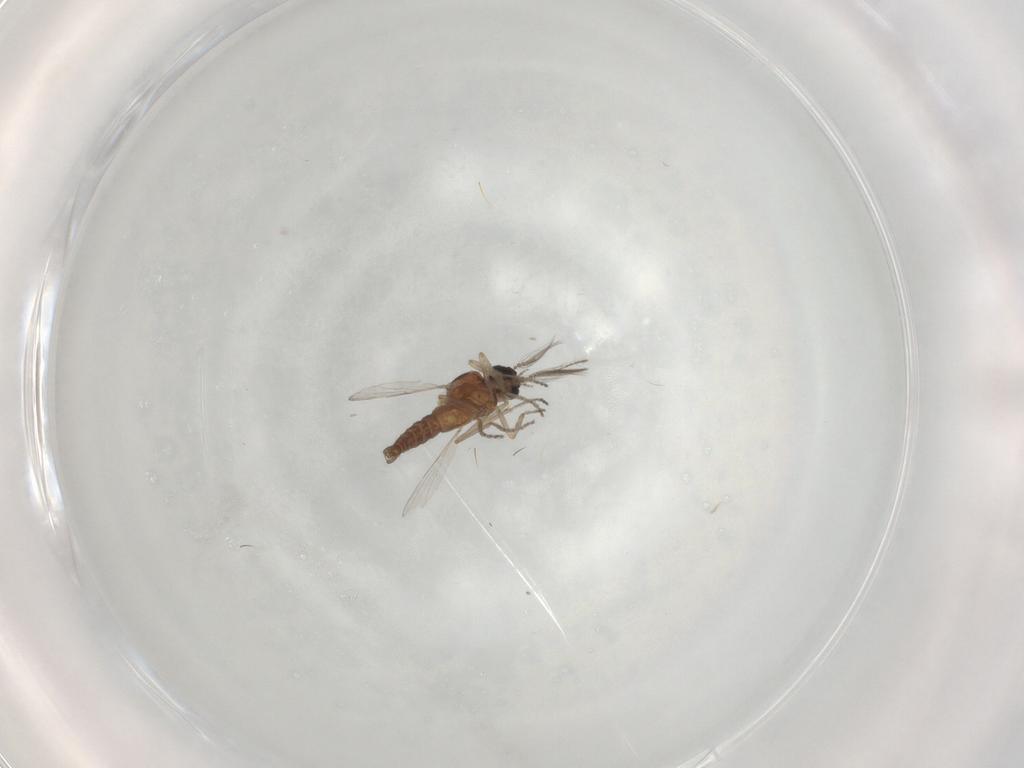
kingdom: Animalia
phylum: Arthropoda
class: Insecta
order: Diptera
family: Ceratopogonidae
